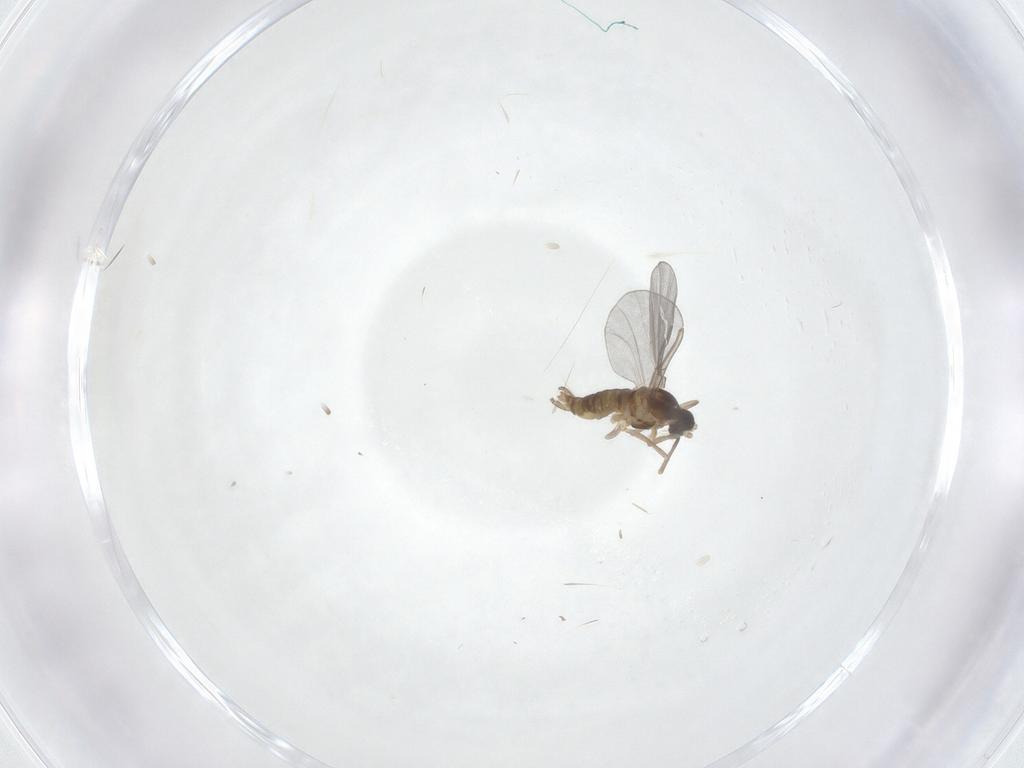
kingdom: Animalia
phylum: Arthropoda
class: Insecta
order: Diptera
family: Cecidomyiidae
